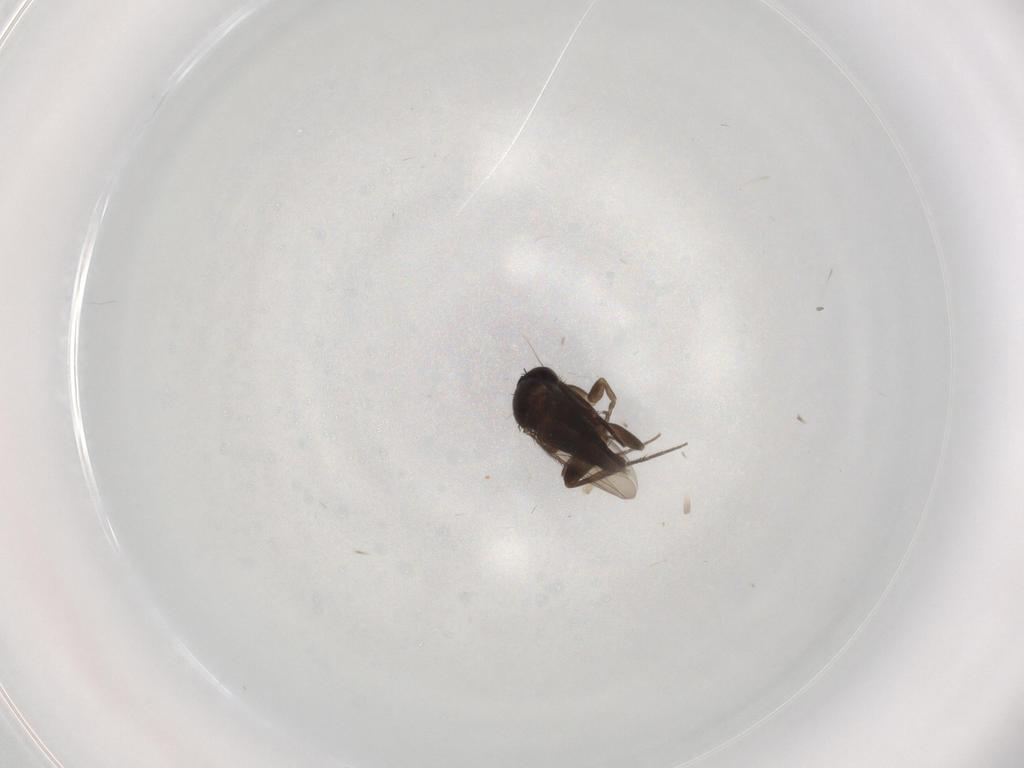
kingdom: Animalia
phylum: Arthropoda
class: Insecta
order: Diptera
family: Phoridae
